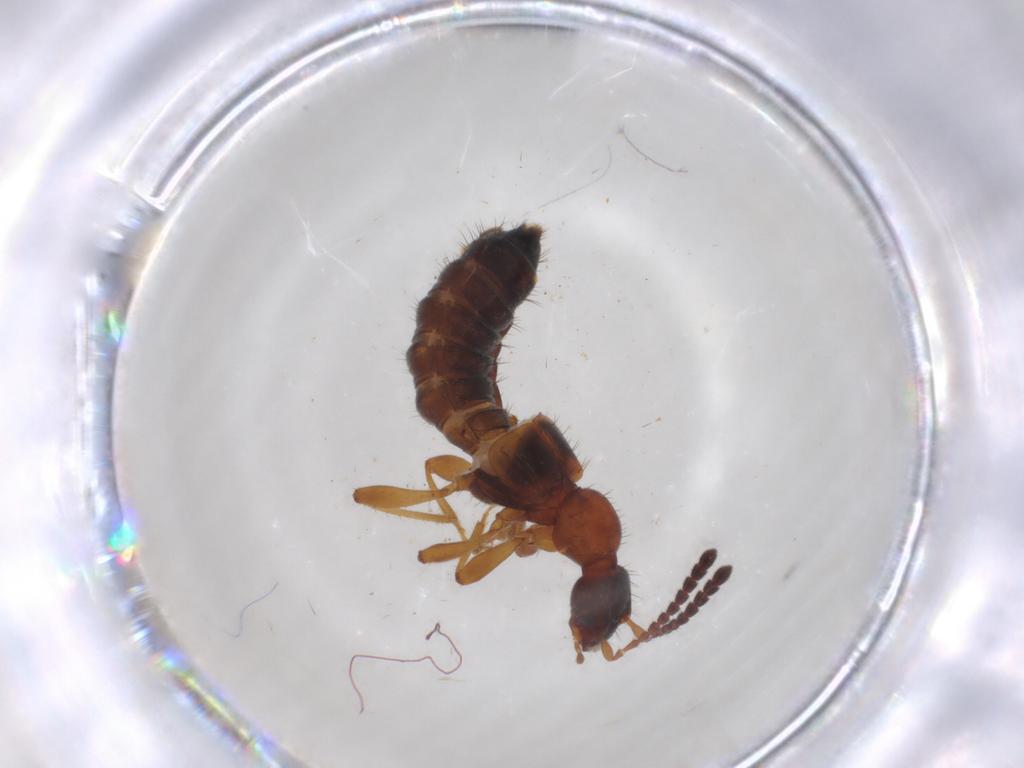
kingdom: Animalia
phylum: Arthropoda
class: Insecta
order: Coleoptera
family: Staphylinidae
